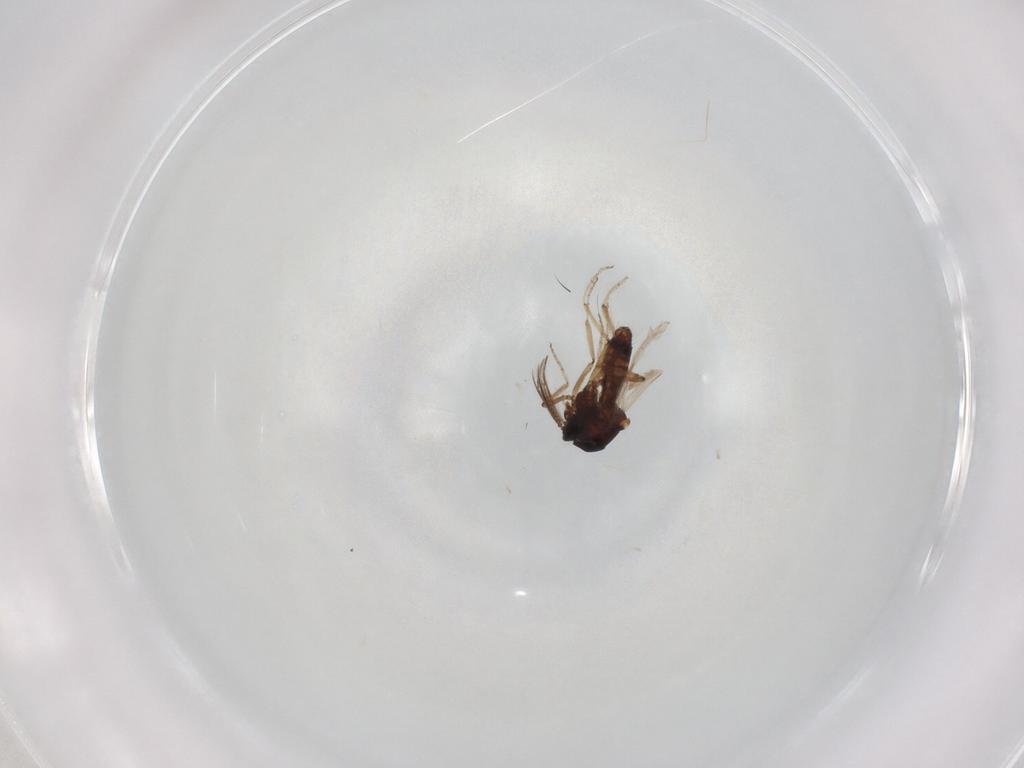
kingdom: Animalia
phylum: Arthropoda
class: Insecta
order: Diptera
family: Ceratopogonidae
